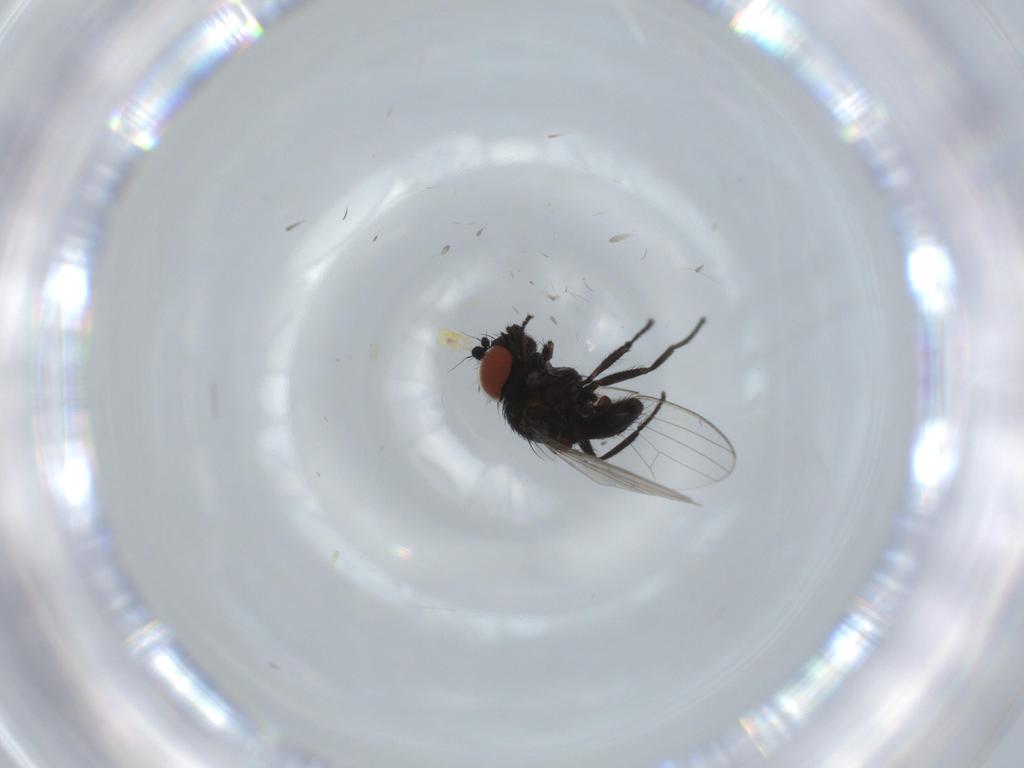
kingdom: Animalia
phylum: Arthropoda
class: Insecta
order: Diptera
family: Milichiidae
